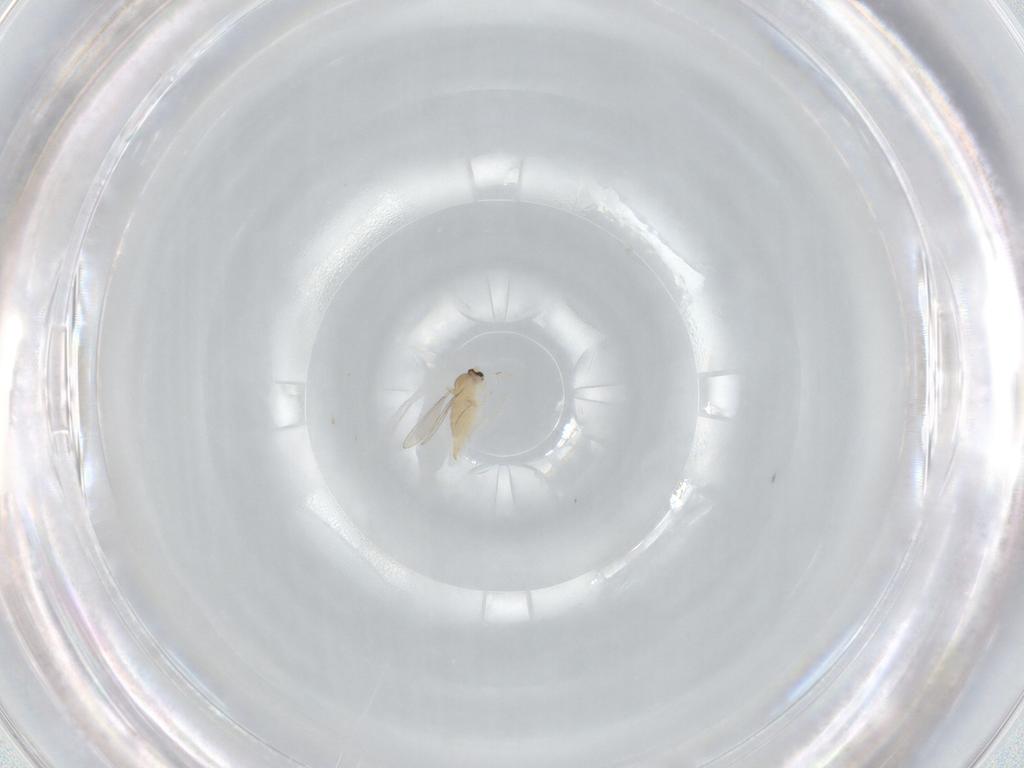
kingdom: Animalia
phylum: Arthropoda
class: Insecta
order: Diptera
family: Cecidomyiidae
